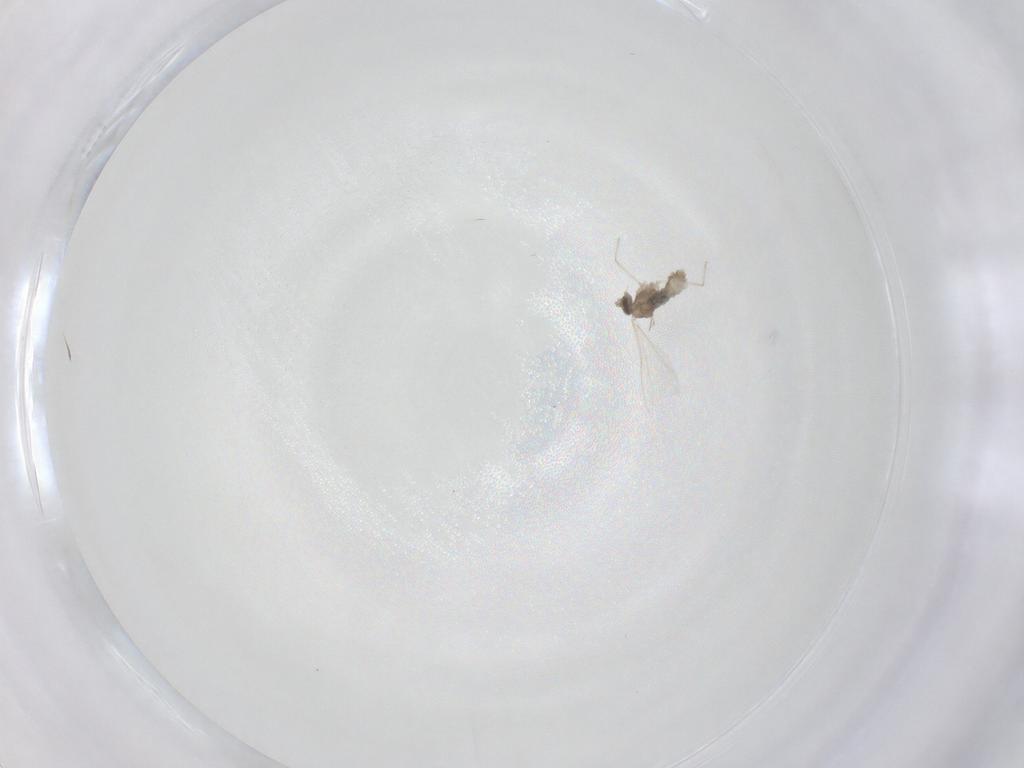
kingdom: Animalia
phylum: Arthropoda
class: Insecta
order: Diptera
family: Cecidomyiidae
